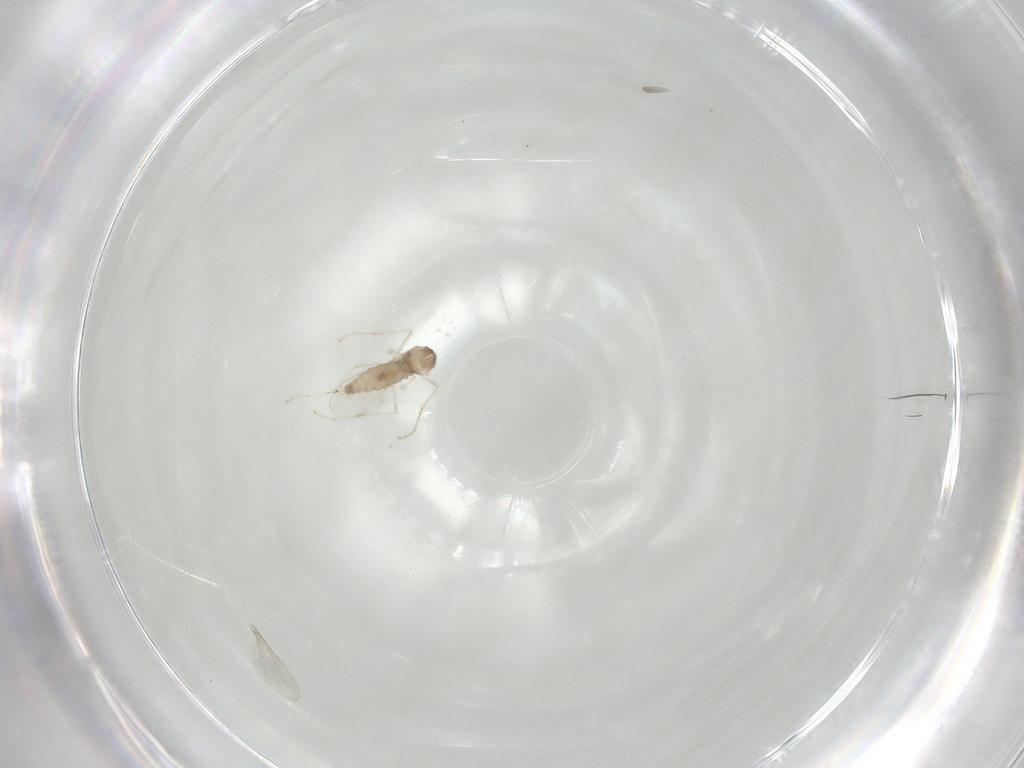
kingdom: Animalia
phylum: Arthropoda
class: Insecta
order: Diptera
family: Cecidomyiidae
